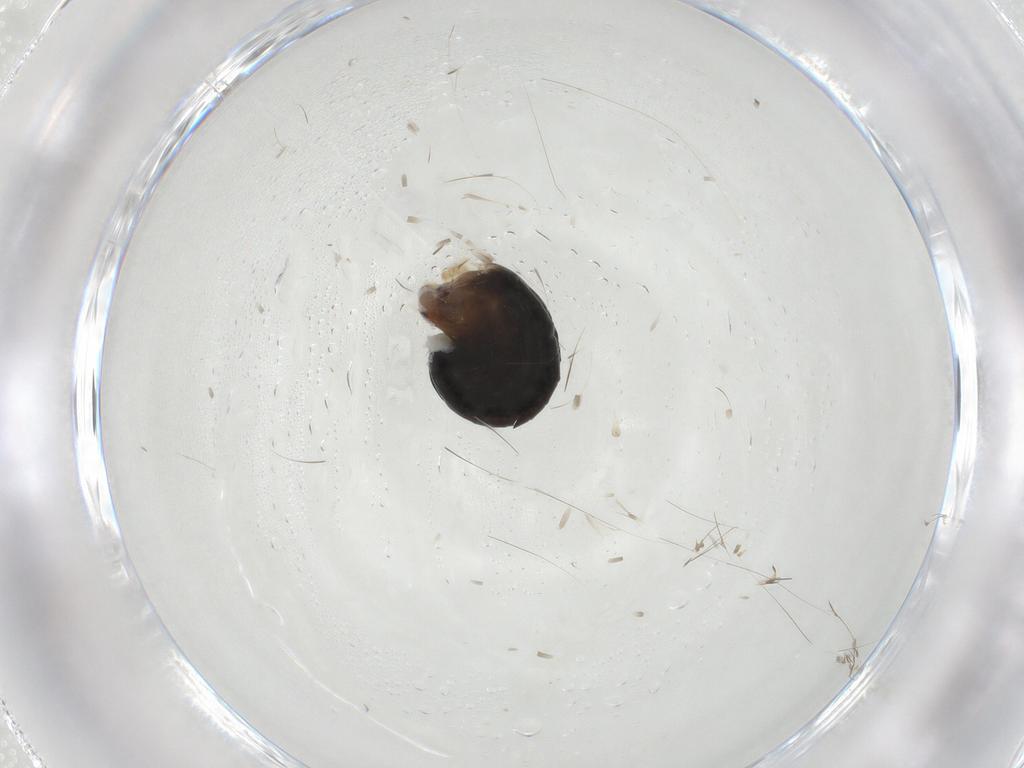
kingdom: Animalia
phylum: Arthropoda
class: Insecta
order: Hymenoptera
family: Dryinidae
